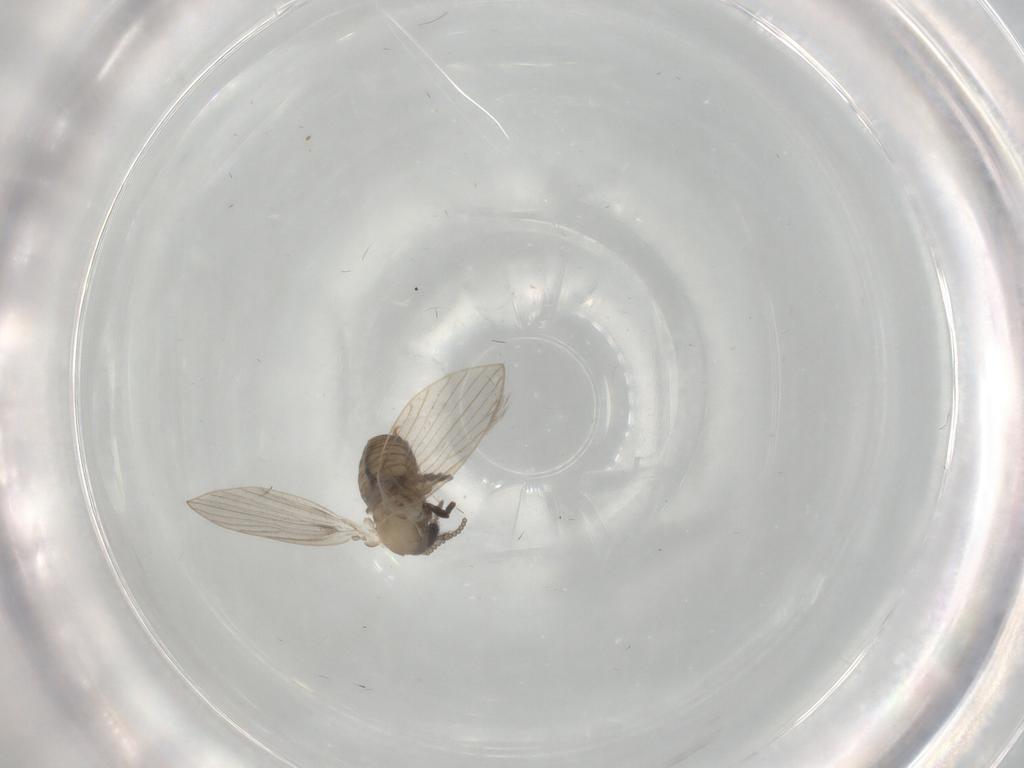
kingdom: Animalia
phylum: Arthropoda
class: Insecta
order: Diptera
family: Psychodidae
